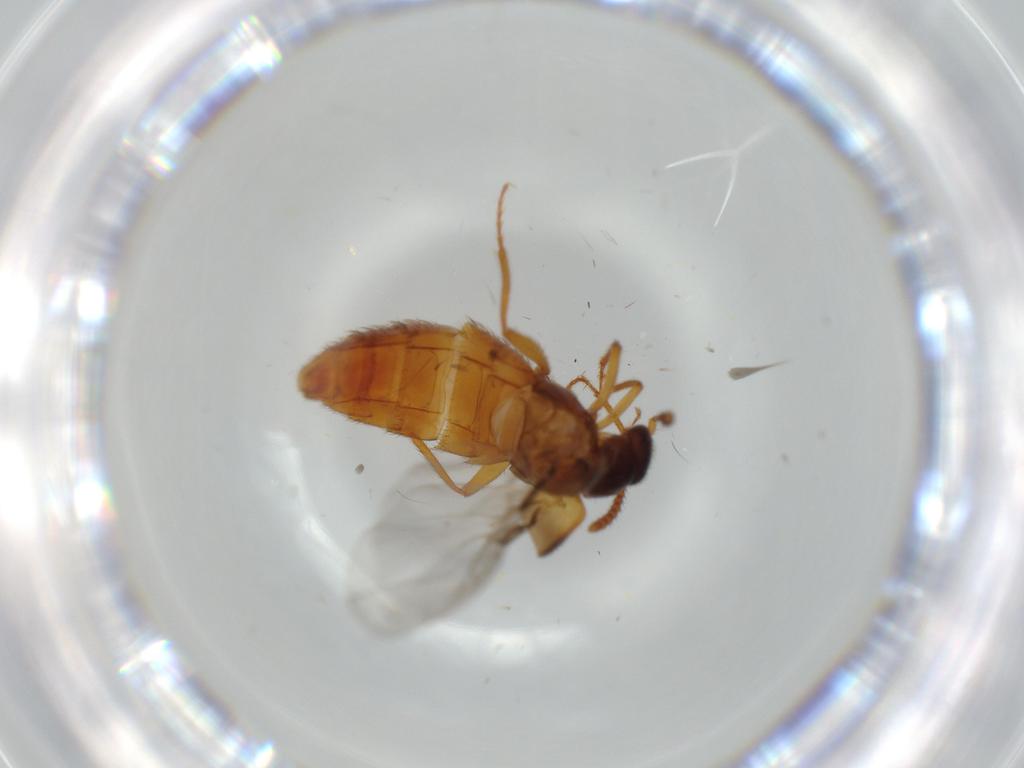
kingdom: Animalia
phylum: Arthropoda
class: Insecta
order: Coleoptera
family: Staphylinidae
